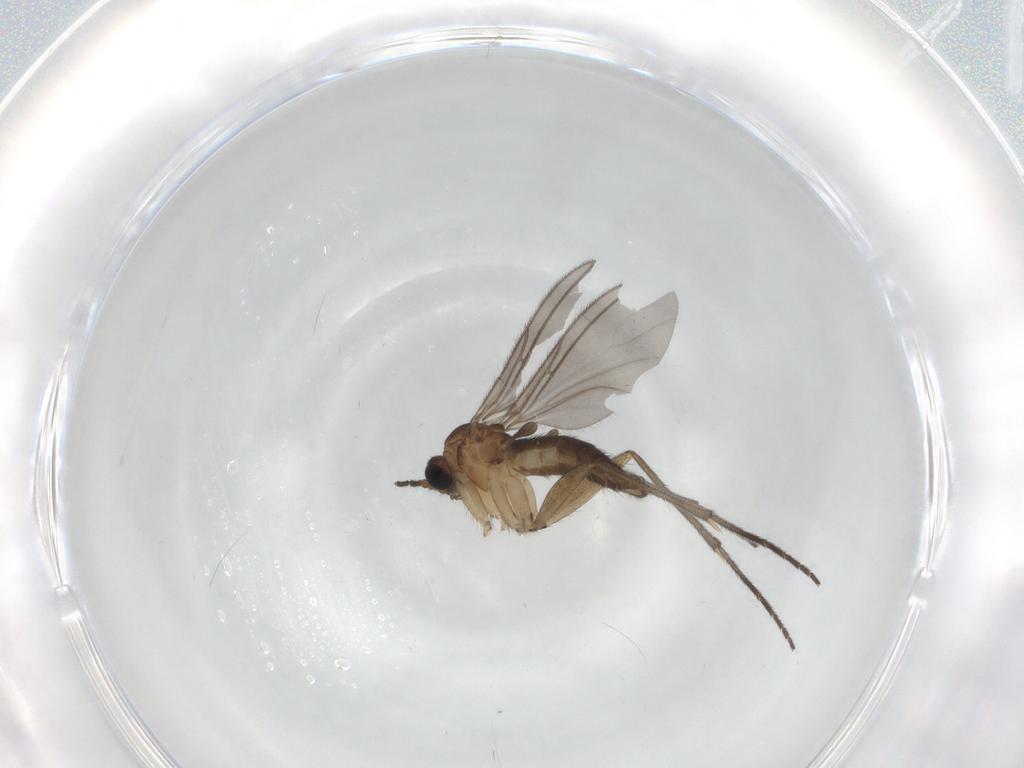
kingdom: Animalia
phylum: Arthropoda
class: Insecta
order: Diptera
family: Sciaridae
